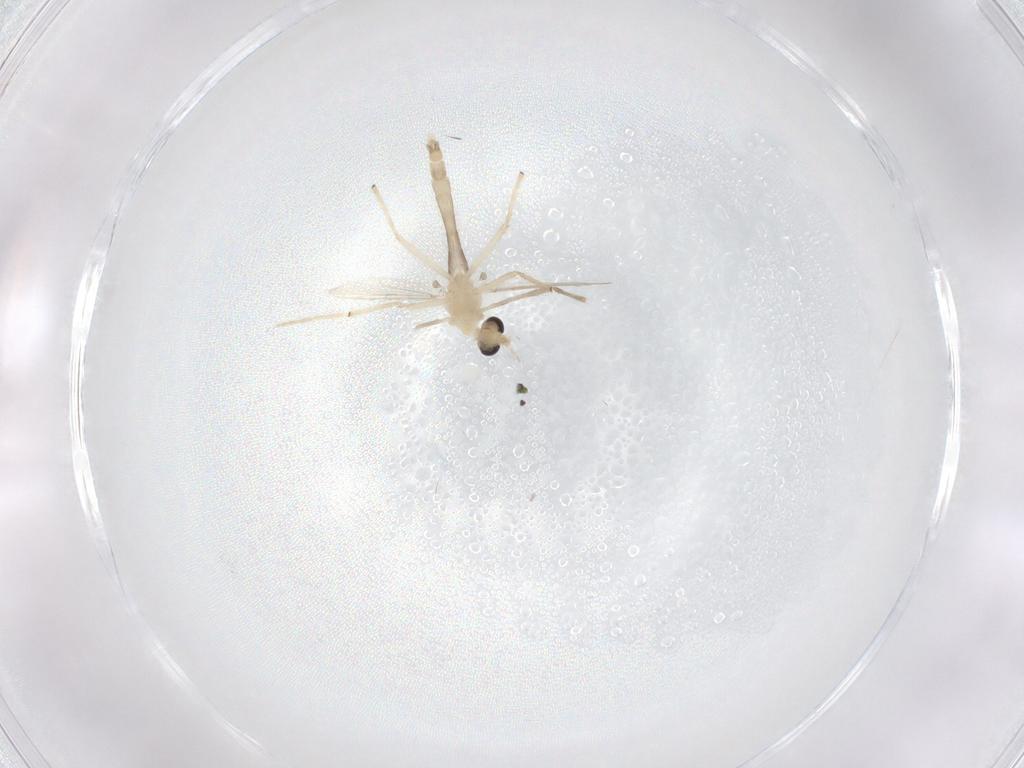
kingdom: Animalia
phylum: Arthropoda
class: Insecta
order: Diptera
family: Chironomidae
